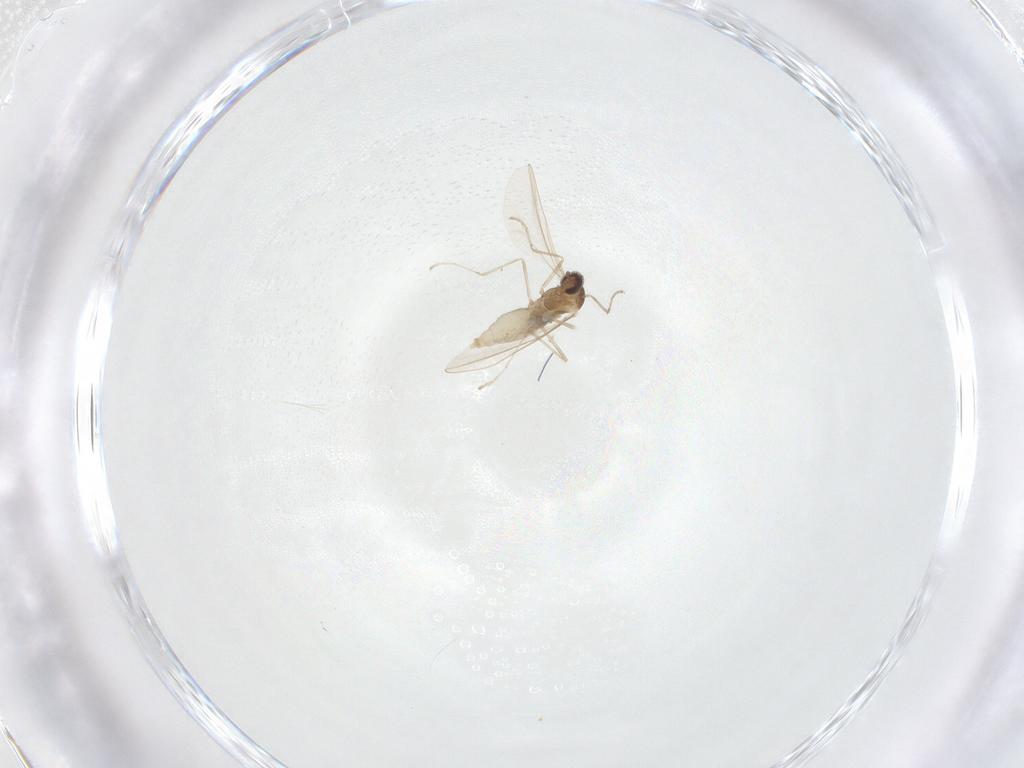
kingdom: Animalia
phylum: Arthropoda
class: Insecta
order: Diptera
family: Cecidomyiidae
